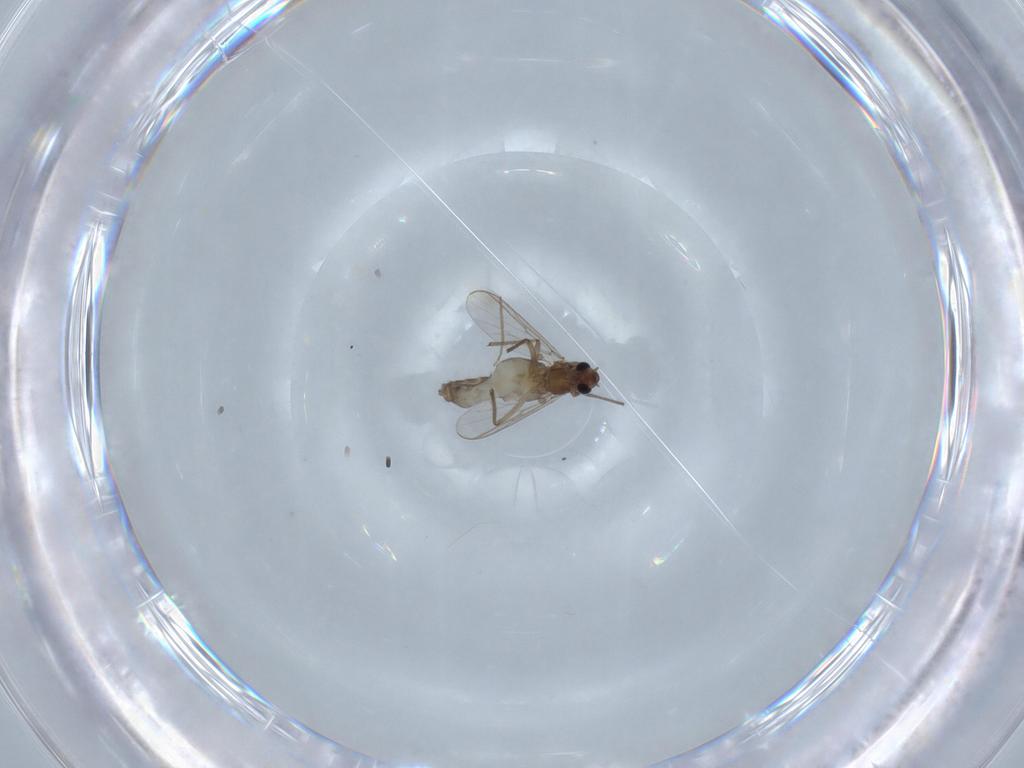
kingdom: Animalia
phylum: Arthropoda
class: Insecta
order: Diptera
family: Chironomidae
